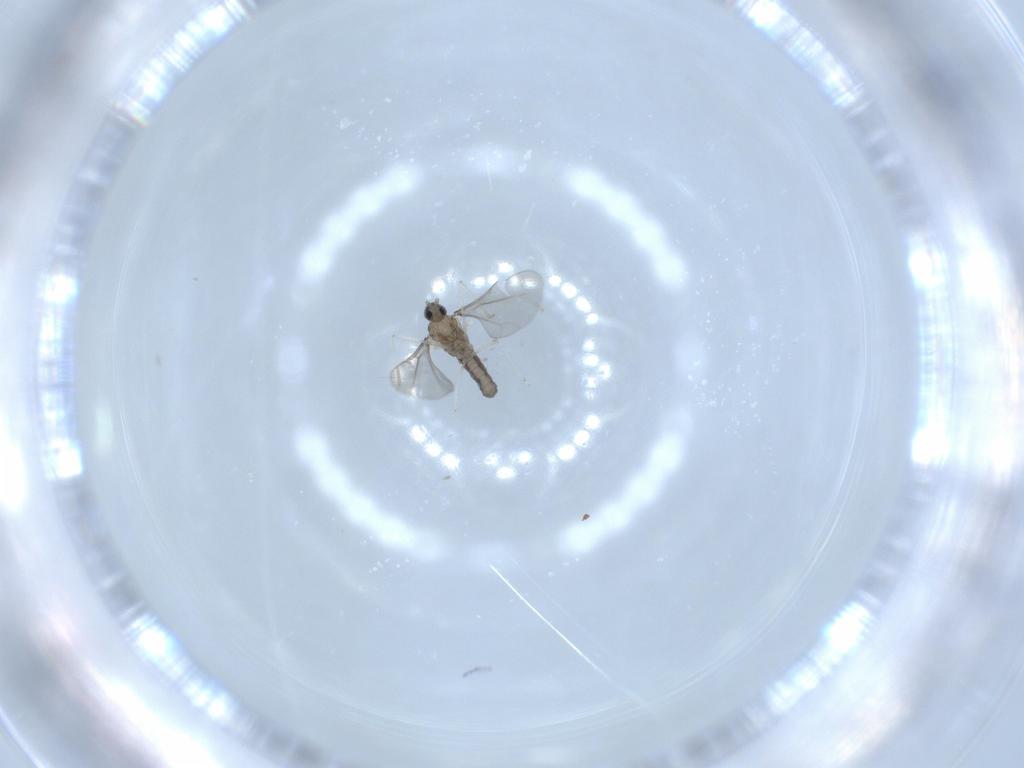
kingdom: Animalia
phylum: Arthropoda
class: Insecta
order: Diptera
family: Cecidomyiidae
